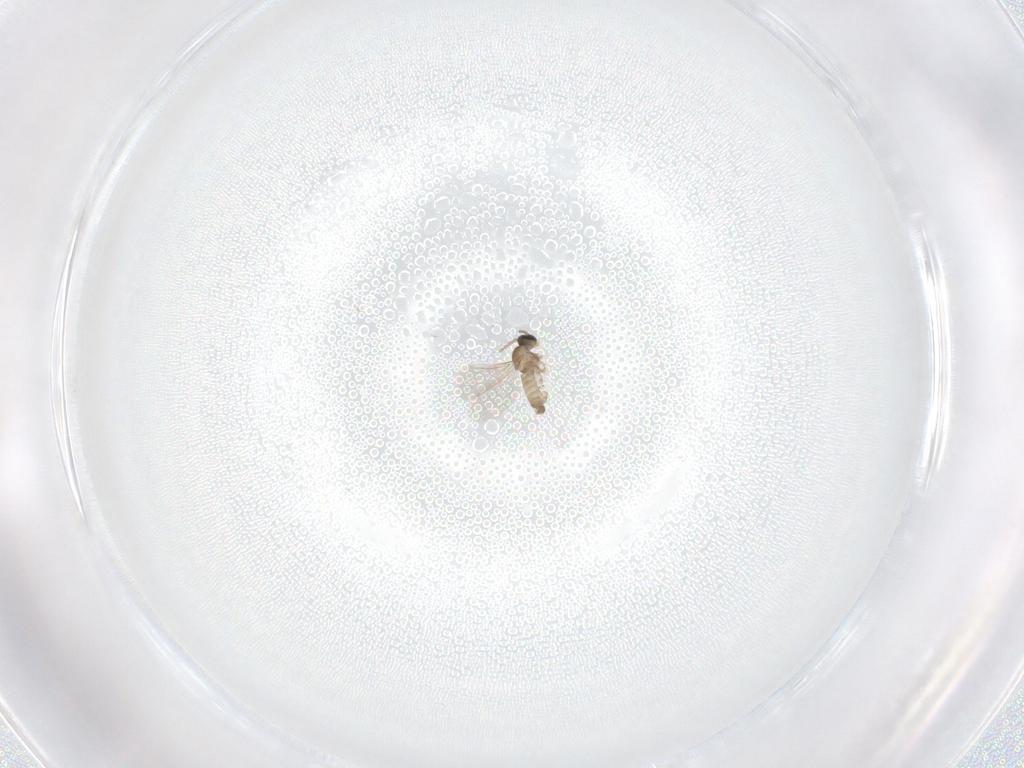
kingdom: Animalia
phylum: Arthropoda
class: Insecta
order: Diptera
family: Cecidomyiidae
